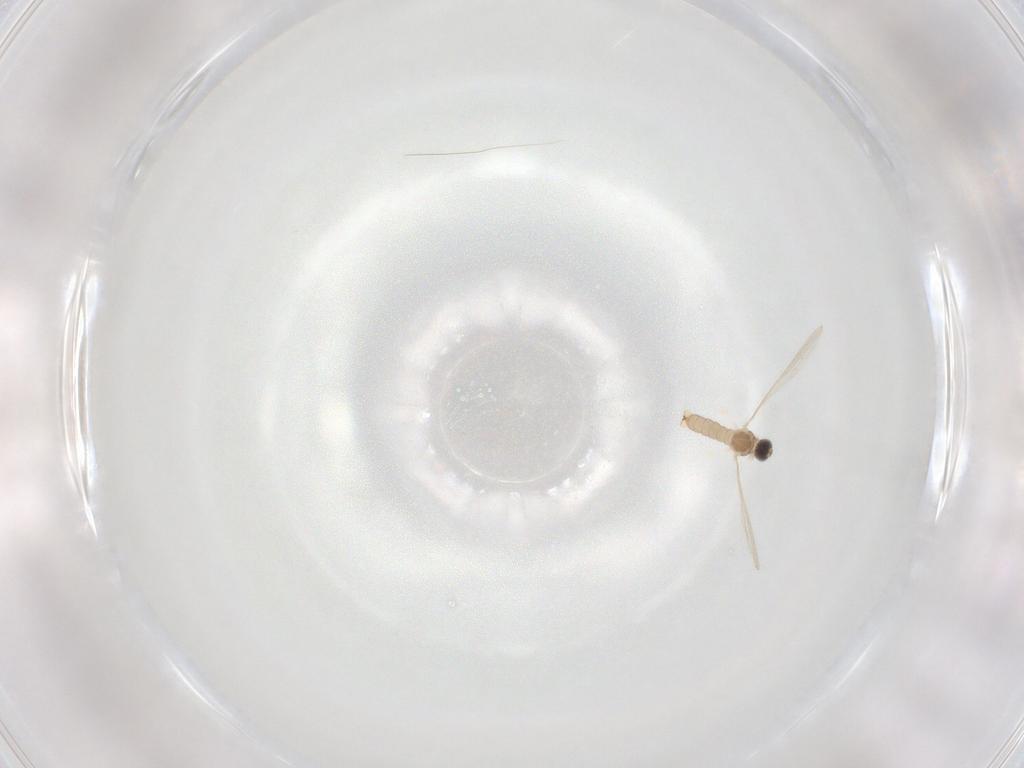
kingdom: Animalia
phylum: Arthropoda
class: Insecta
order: Diptera
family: Cecidomyiidae
